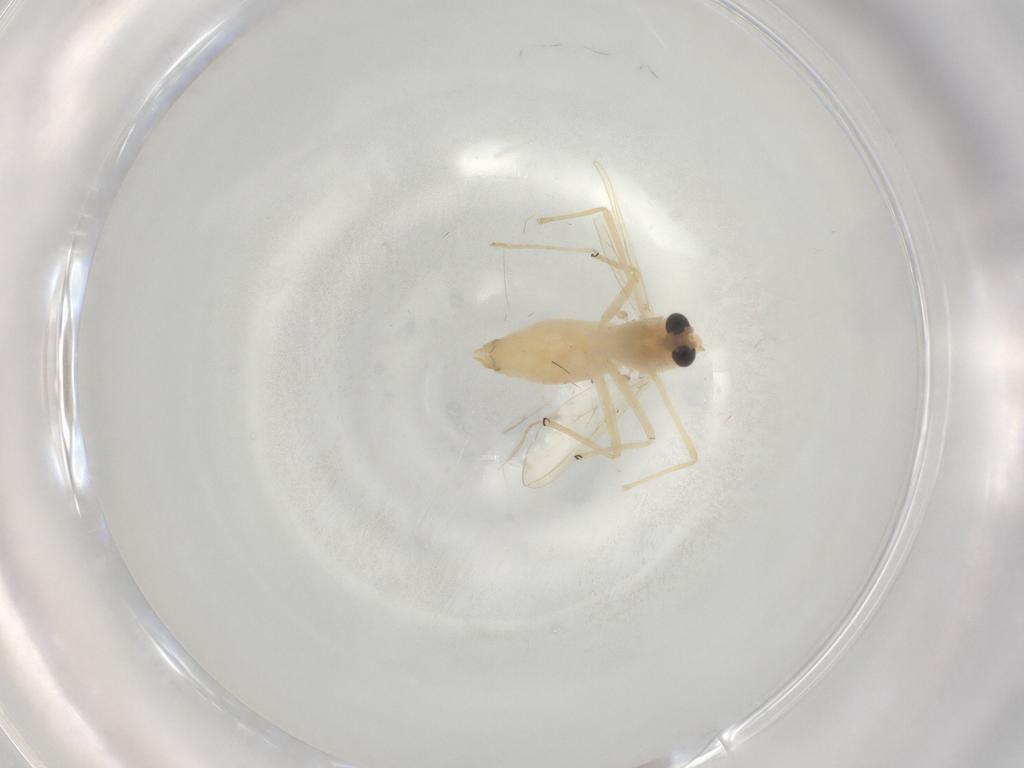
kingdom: Animalia
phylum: Arthropoda
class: Insecta
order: Diptera
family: Chironomidae
